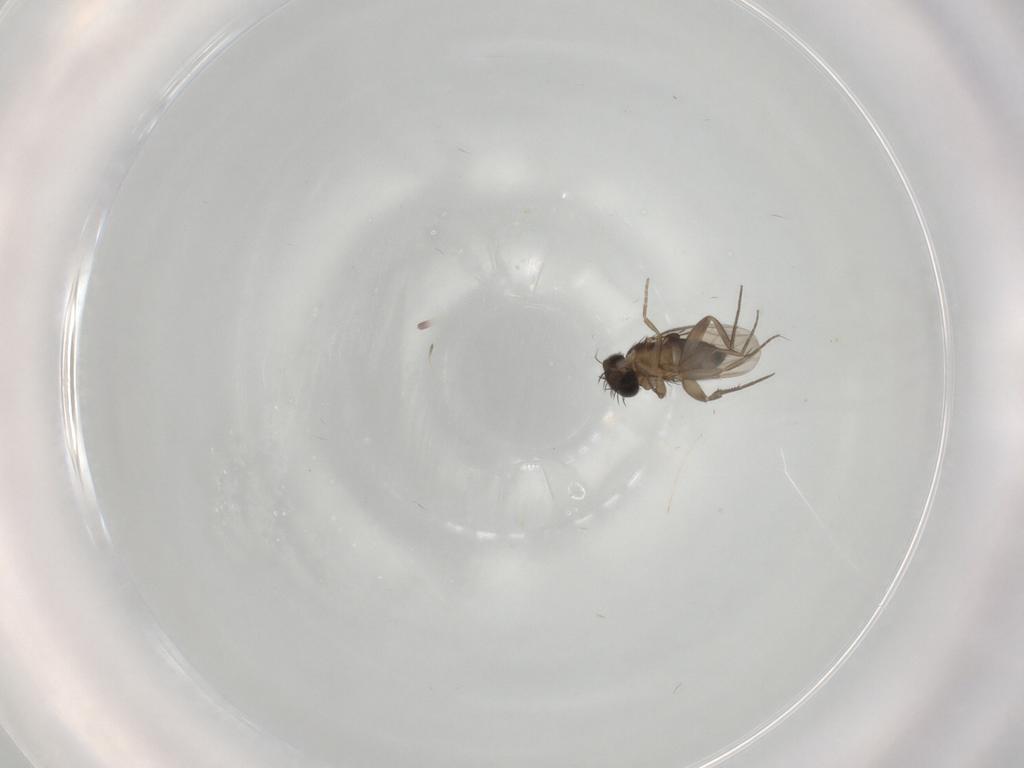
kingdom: Animalia
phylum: Arthropoda
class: Insecta
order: Diptera
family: Phoridae
